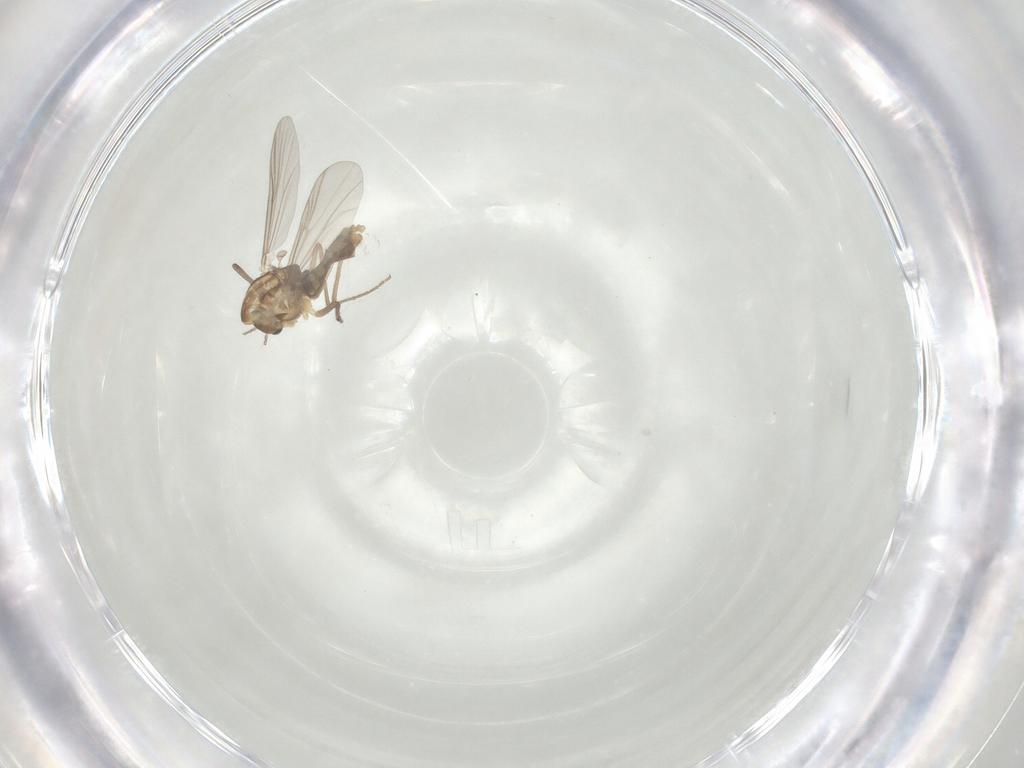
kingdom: Animalia
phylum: Arthropoda
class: Insecta
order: Diptera
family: Chironomidae
